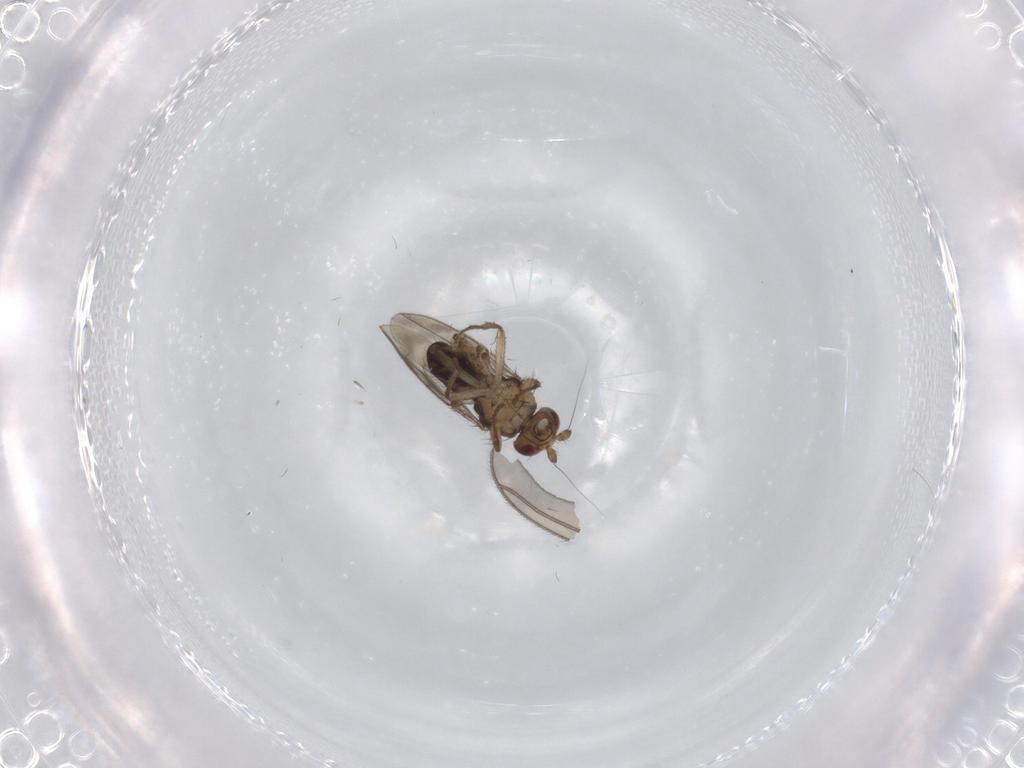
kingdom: Animalia
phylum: Arthropoda
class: Insecta
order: Diptera
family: Sphaeroceridae
